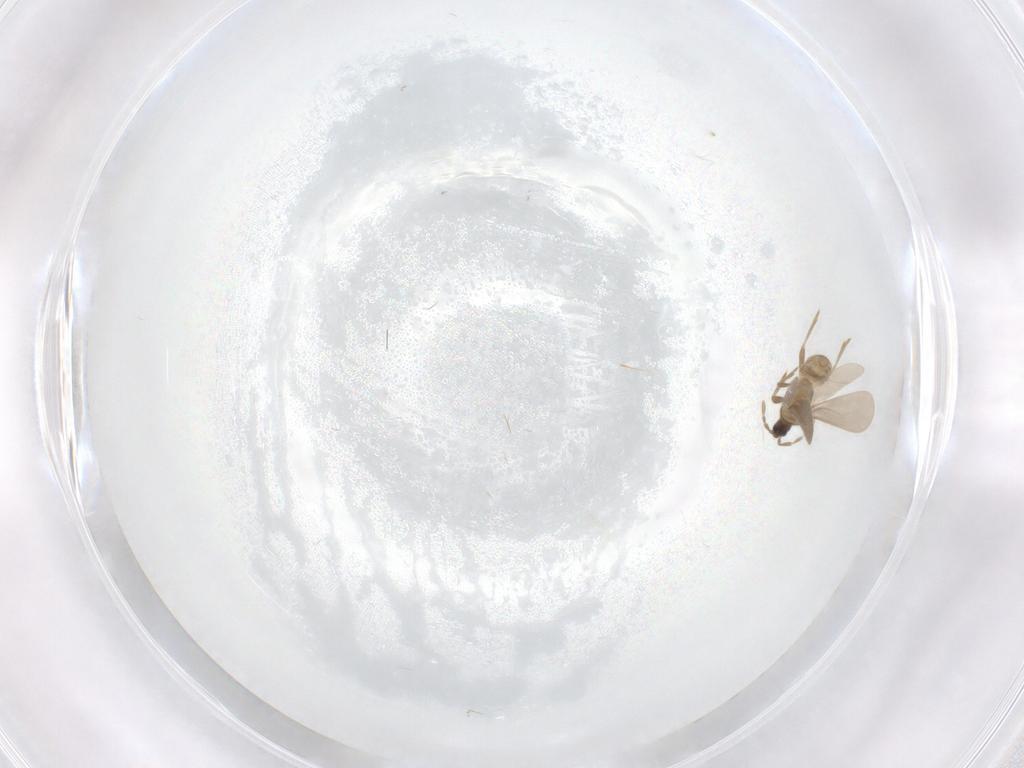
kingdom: Animalia
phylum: Arthropoda
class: Insecta
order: Hemiptera
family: Enicocephalidae
